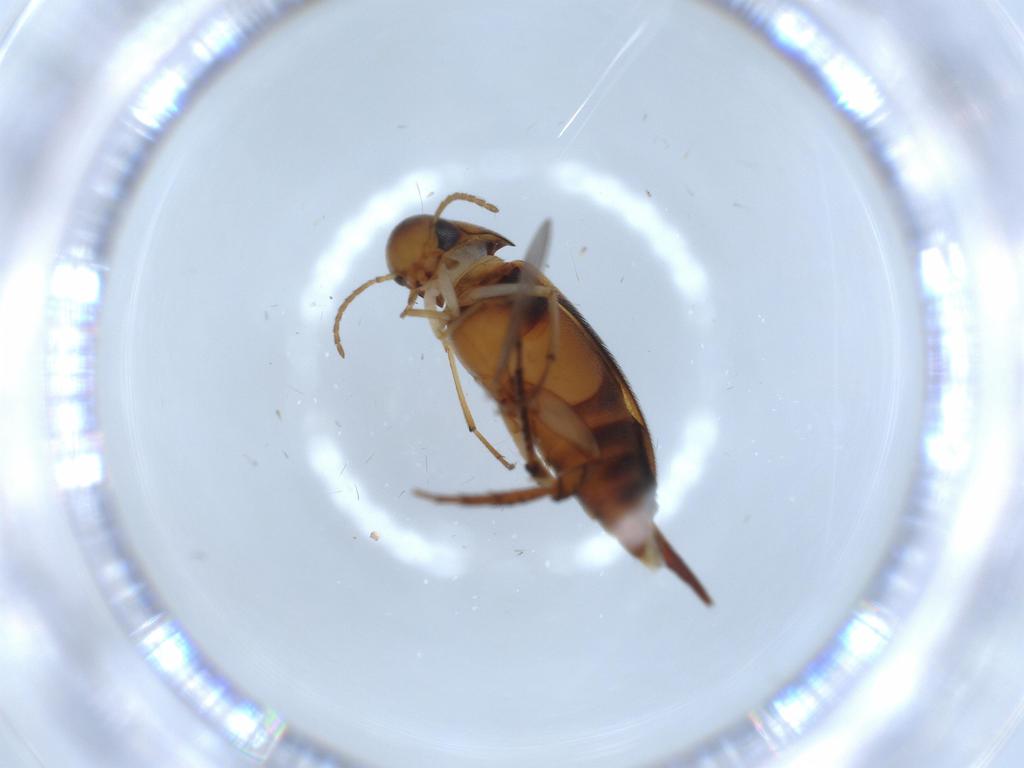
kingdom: Animalia
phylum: Arthropoda
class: Insecta
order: Coleoptera
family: Mordellidae
